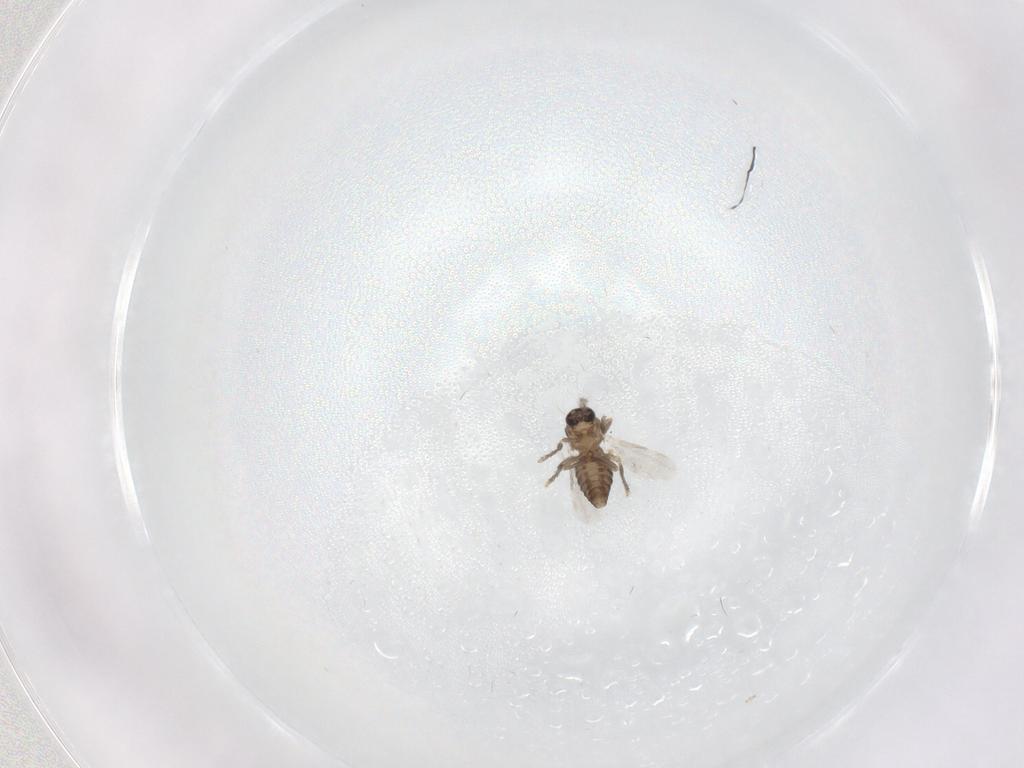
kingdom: Animalia
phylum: Arthropoda
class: Insecta
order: Diptera
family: Ceratopogonidae
